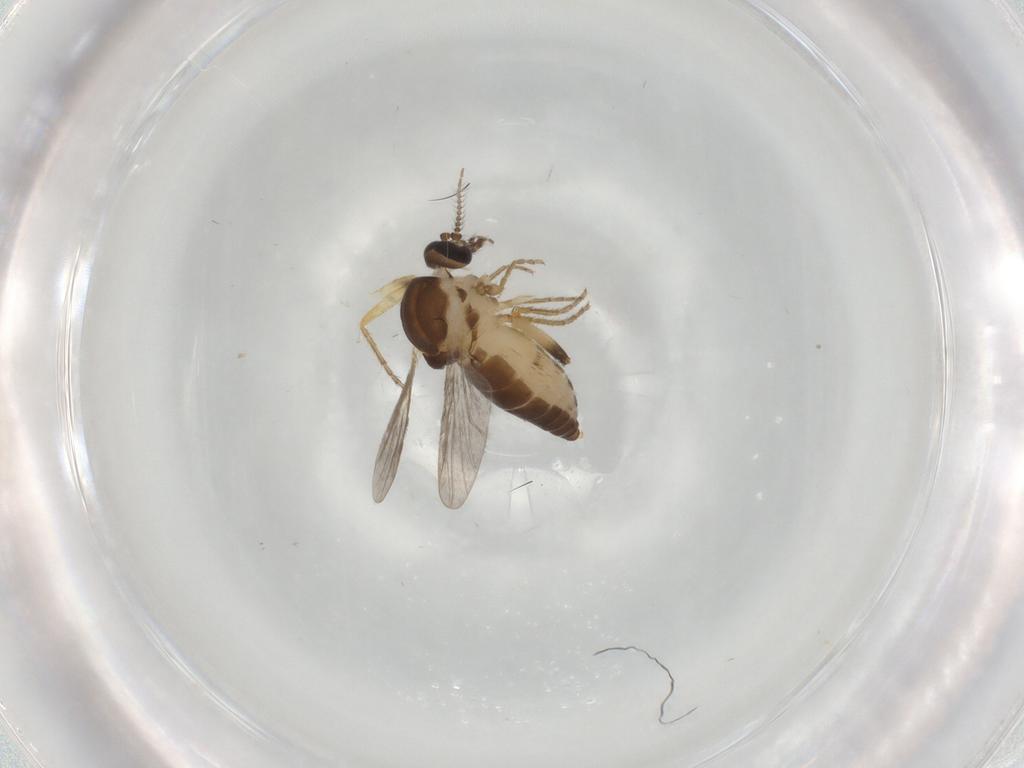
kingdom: Animalia
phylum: Arthropoda
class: Insecta
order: Diptera
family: Ceratopogonidae
